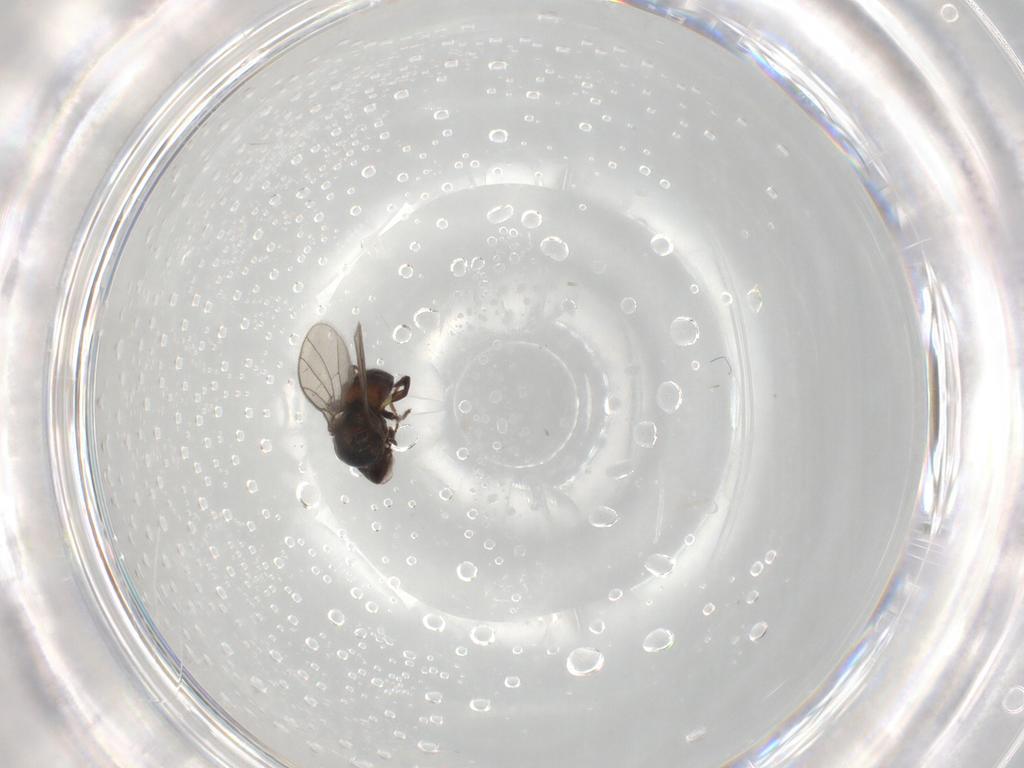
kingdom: Animalia
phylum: Arthropoda
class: Insecta
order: Diptera
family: Chloropidae
